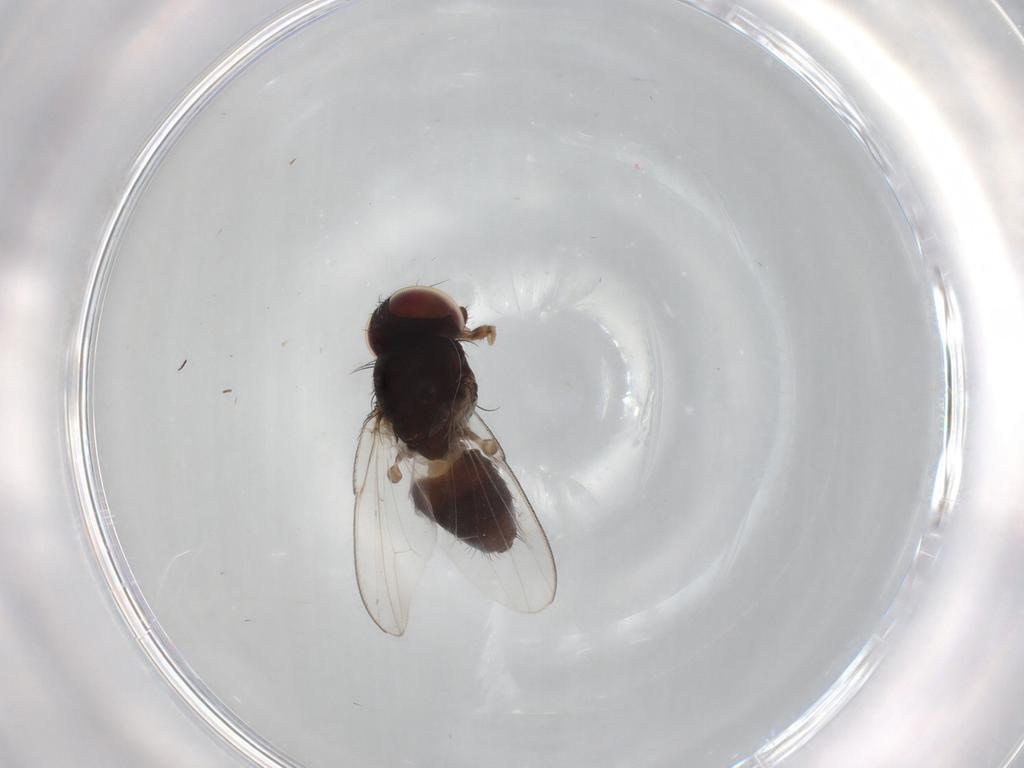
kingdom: Animalia
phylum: Arthropoda
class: Insecta
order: Diptera
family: Milichiidae
